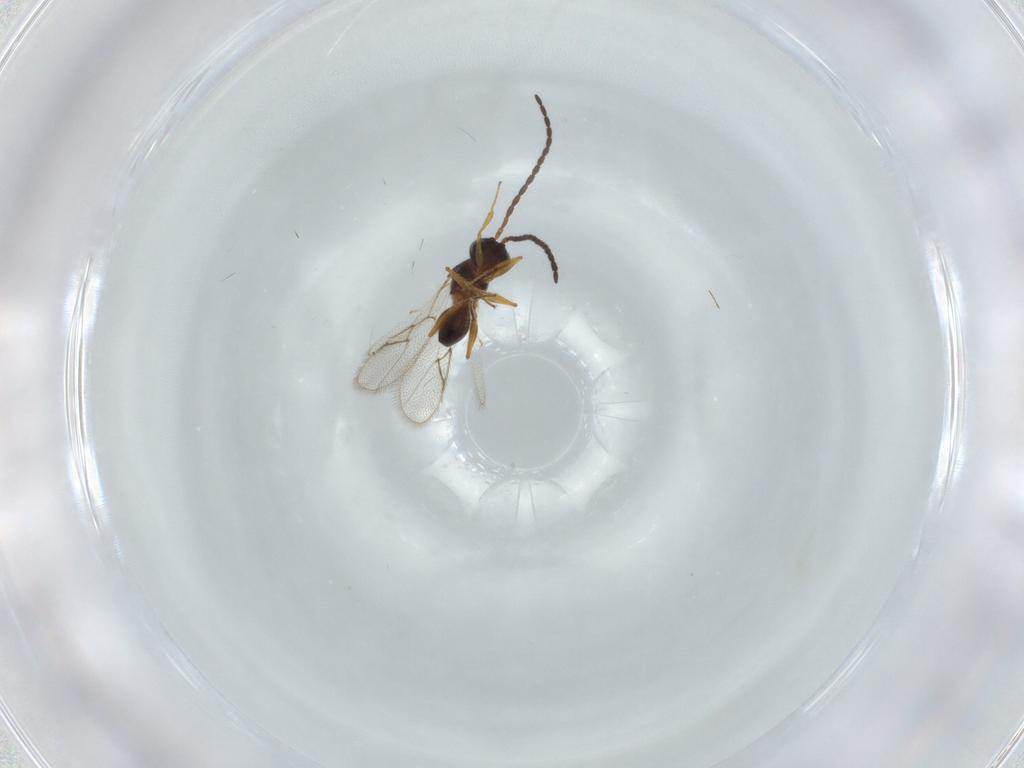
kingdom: Animalia
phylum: Arthropoda
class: Insecta
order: Hymenoptera
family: Figitidae
